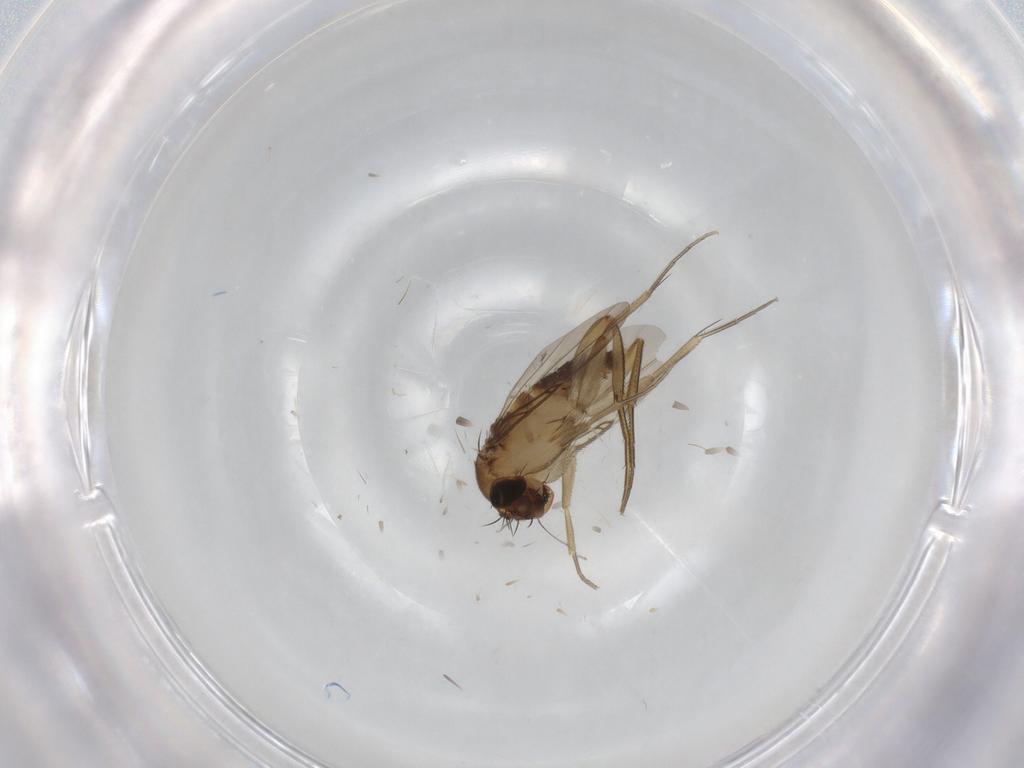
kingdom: Animalia
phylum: Arthropoda
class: Insecta
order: Diptera
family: Phoridae
